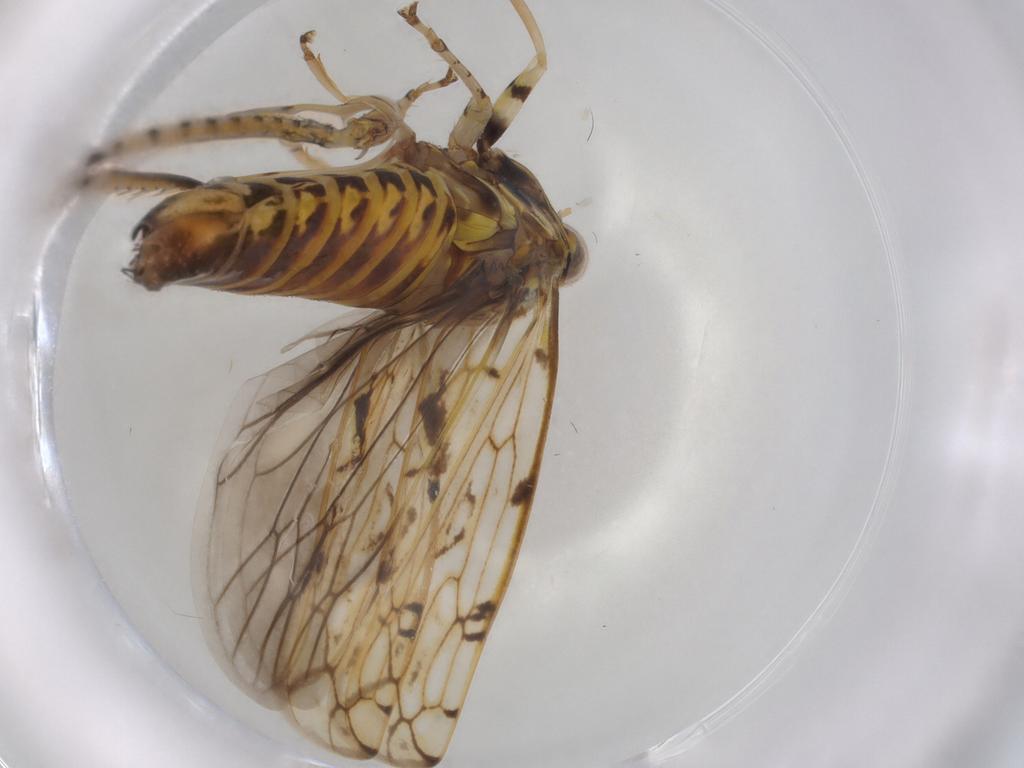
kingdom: Animalia
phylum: Arthropoda
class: Insecta
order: Hemiptera
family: Cicadellidae
